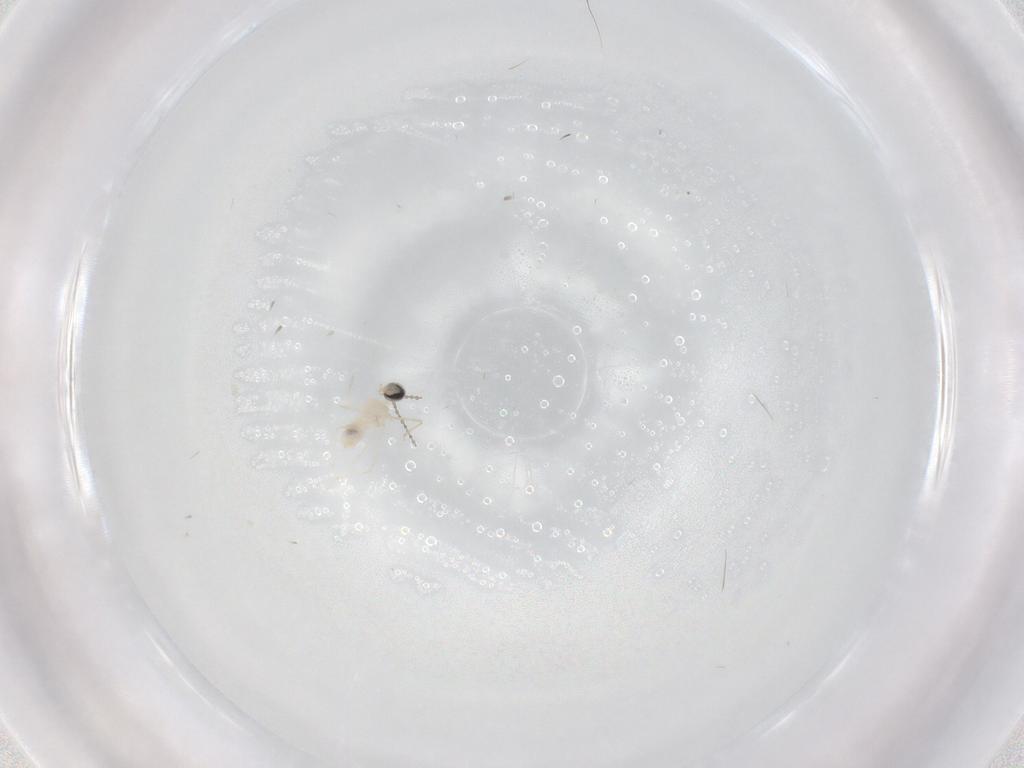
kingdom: Animalia
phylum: Arthropoda
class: Insecta
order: Diptera
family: Cecidomyiidae
